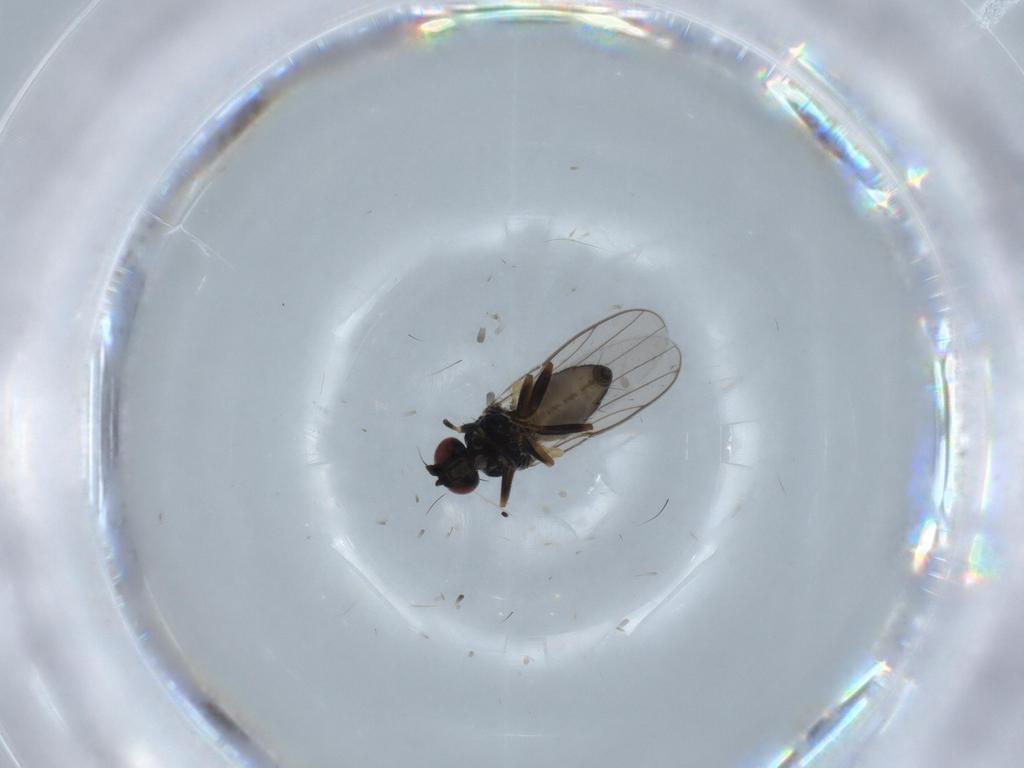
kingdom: Animalia
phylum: Arthropoda
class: Insecta
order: Diptera
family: Chloropidae
